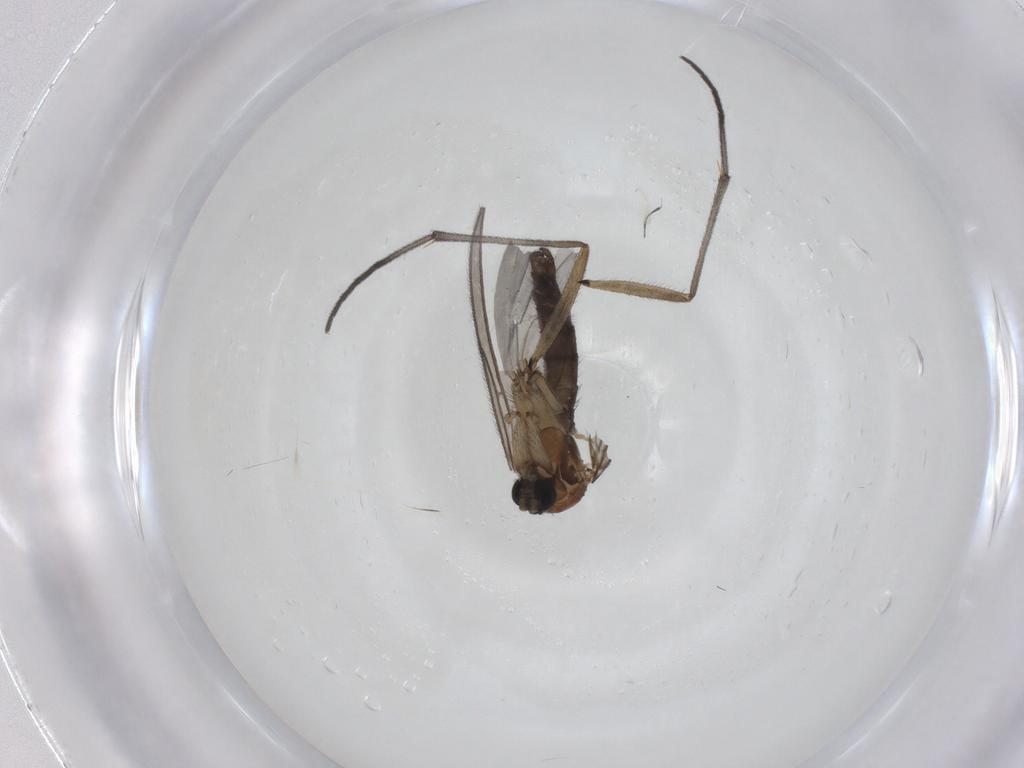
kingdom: Animalia
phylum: Arthropoda
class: Insecta
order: Diptera
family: Sciaridae
